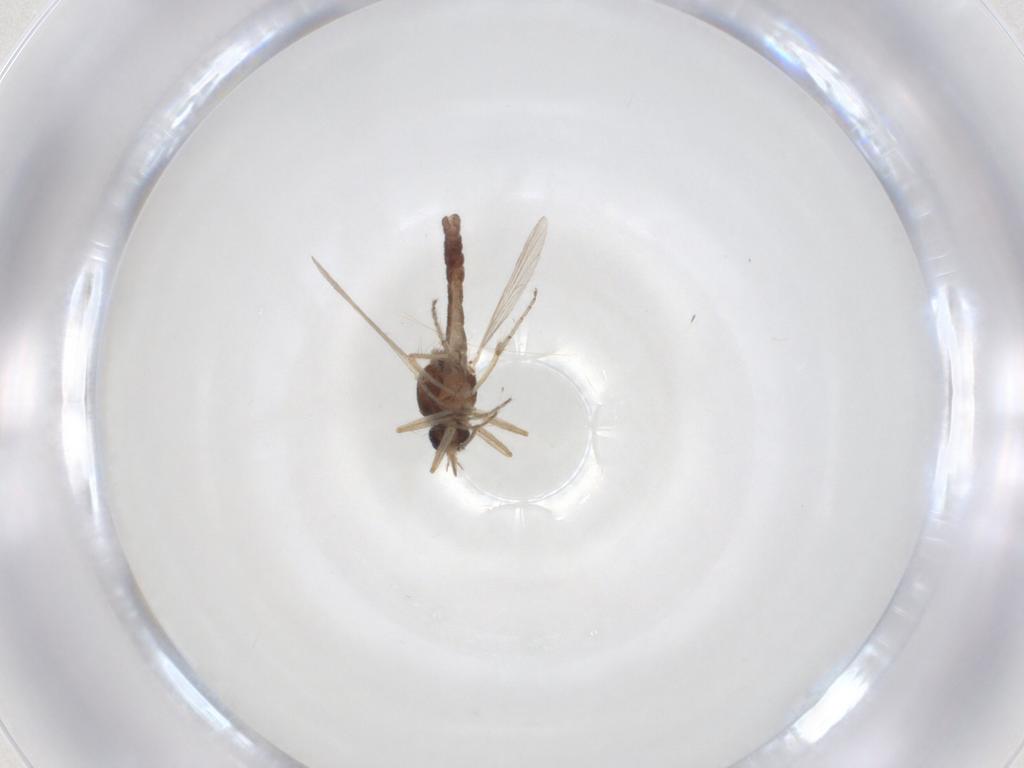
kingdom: Animalia
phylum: Arthropoda
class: Insecta
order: Diptera
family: Ceratopogonidae
